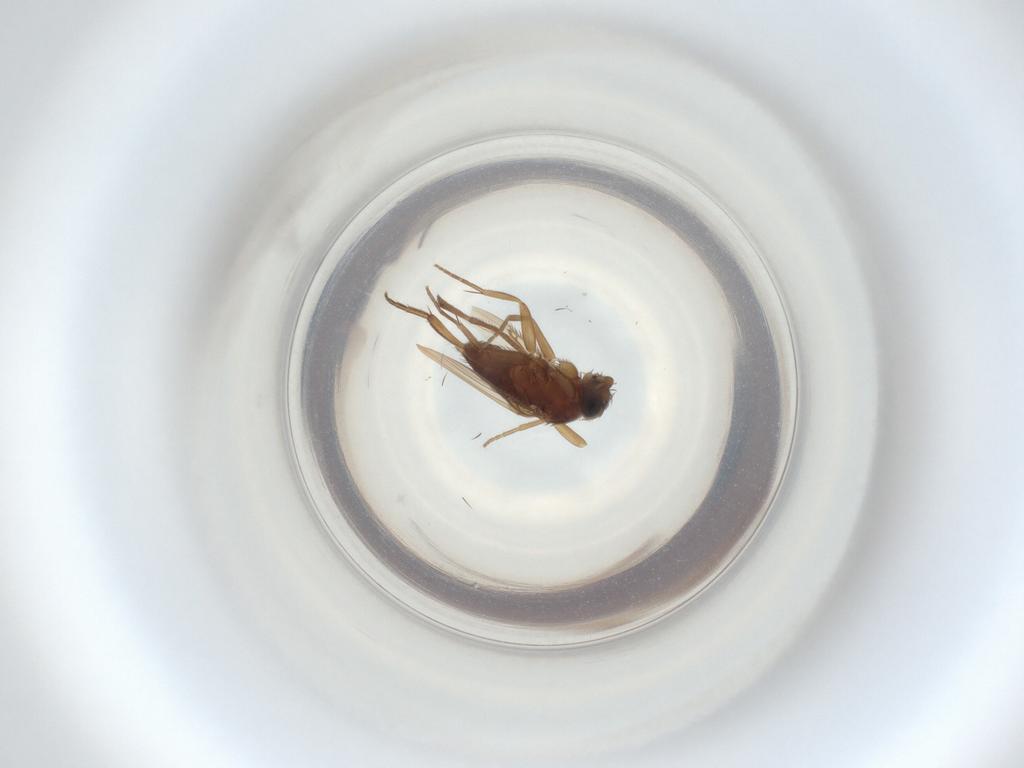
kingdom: Animalia
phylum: Arthropoda
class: Insecta
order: Diptera
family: Phoridae
